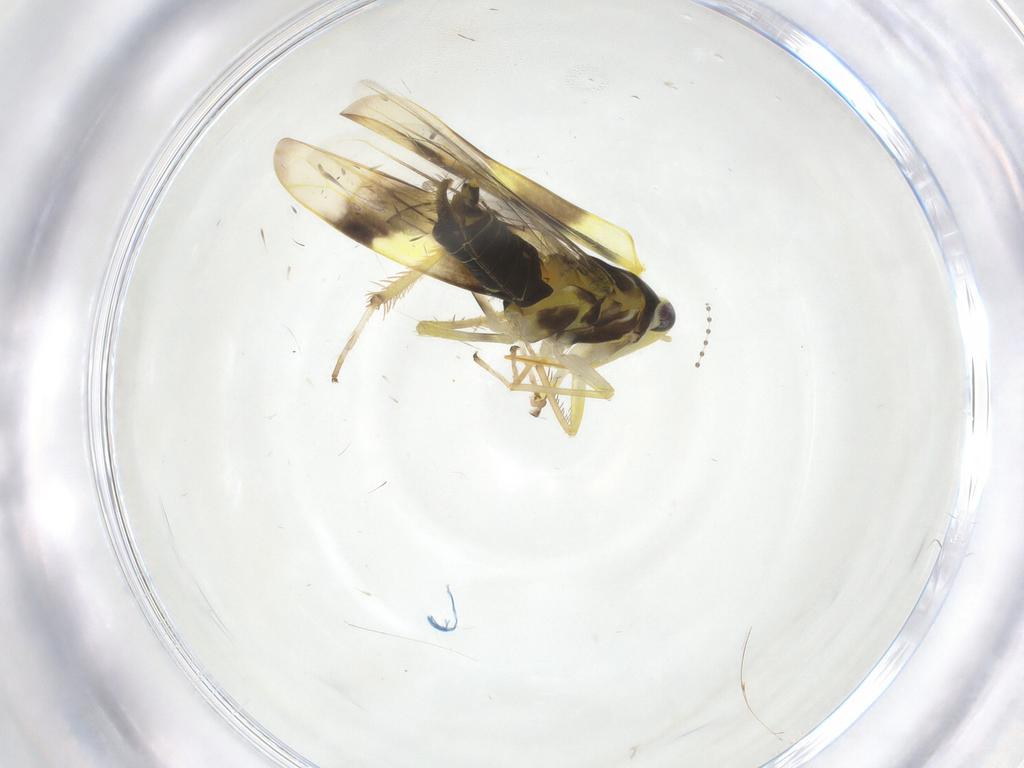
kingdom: Animalia
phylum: Arthropoda
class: Insecta
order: Hemiptera
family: Cicadellidae
